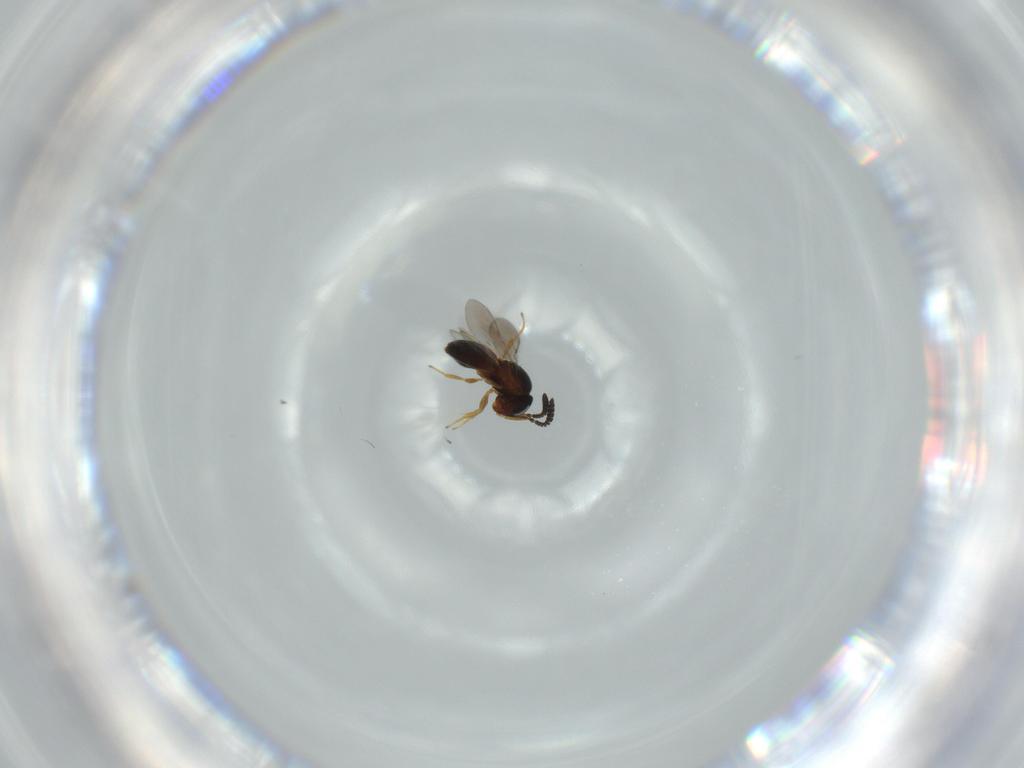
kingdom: Animalia
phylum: Arthropoda
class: Insecta
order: Hymenoptera
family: Scelionidae
